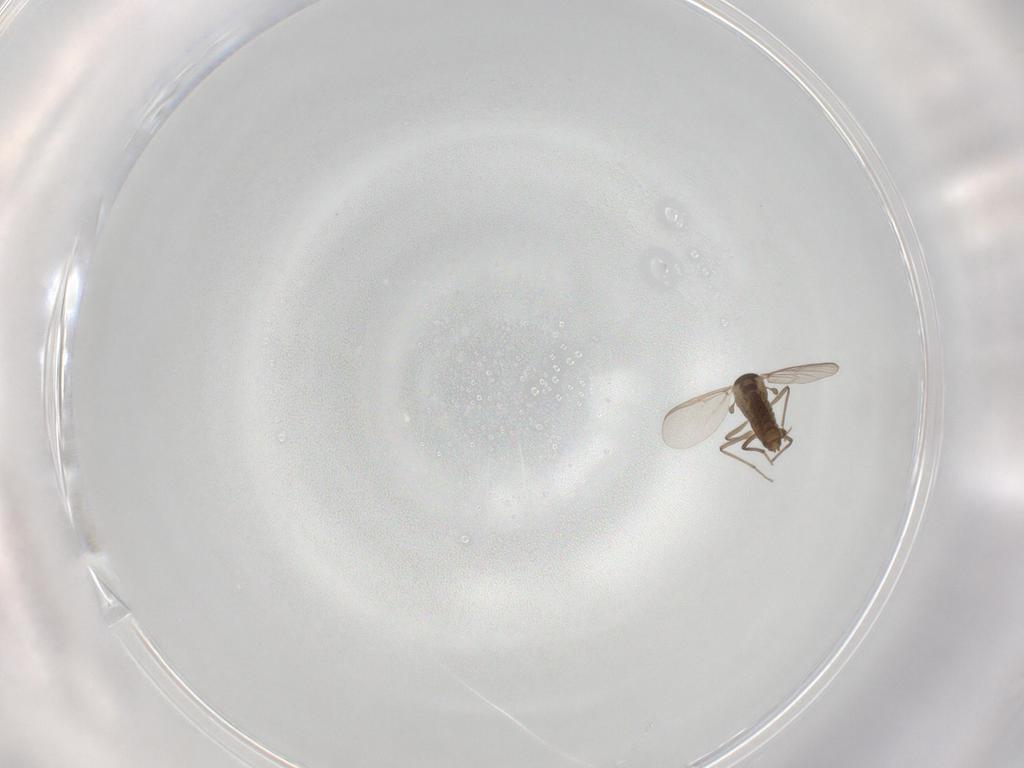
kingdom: Animalia
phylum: Arthropoda
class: Insecta
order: Diptera
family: Chironomidae
